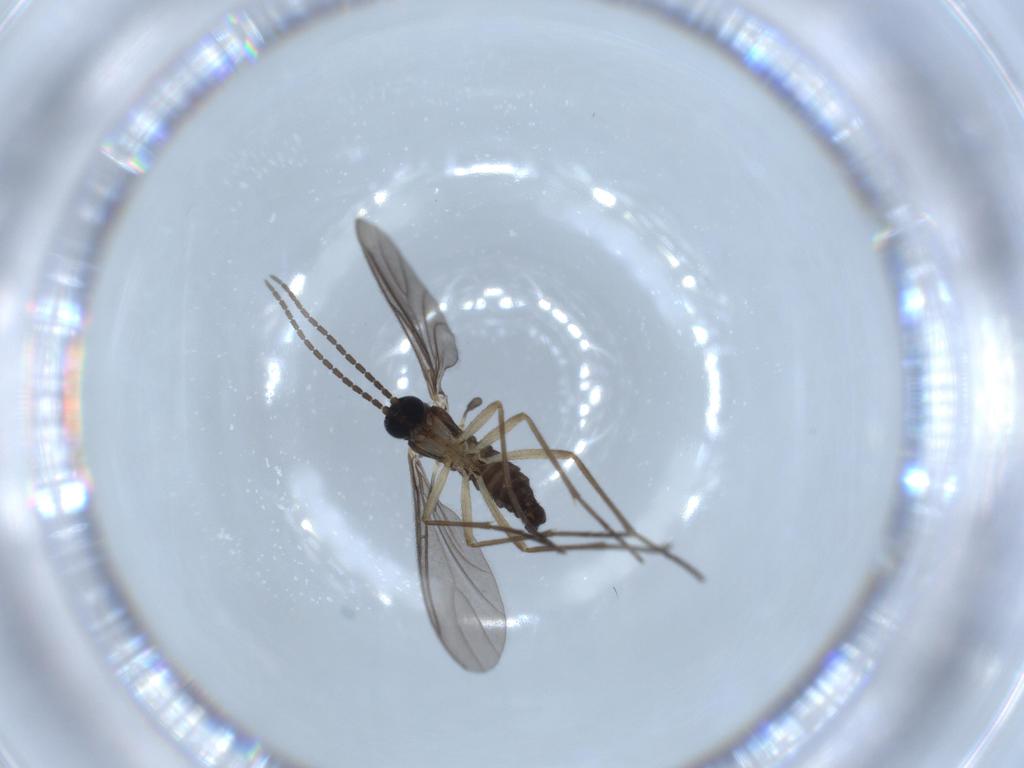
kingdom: Animalia
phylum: Arthropoda
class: Insecta
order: Diptera
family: Sciaridae
